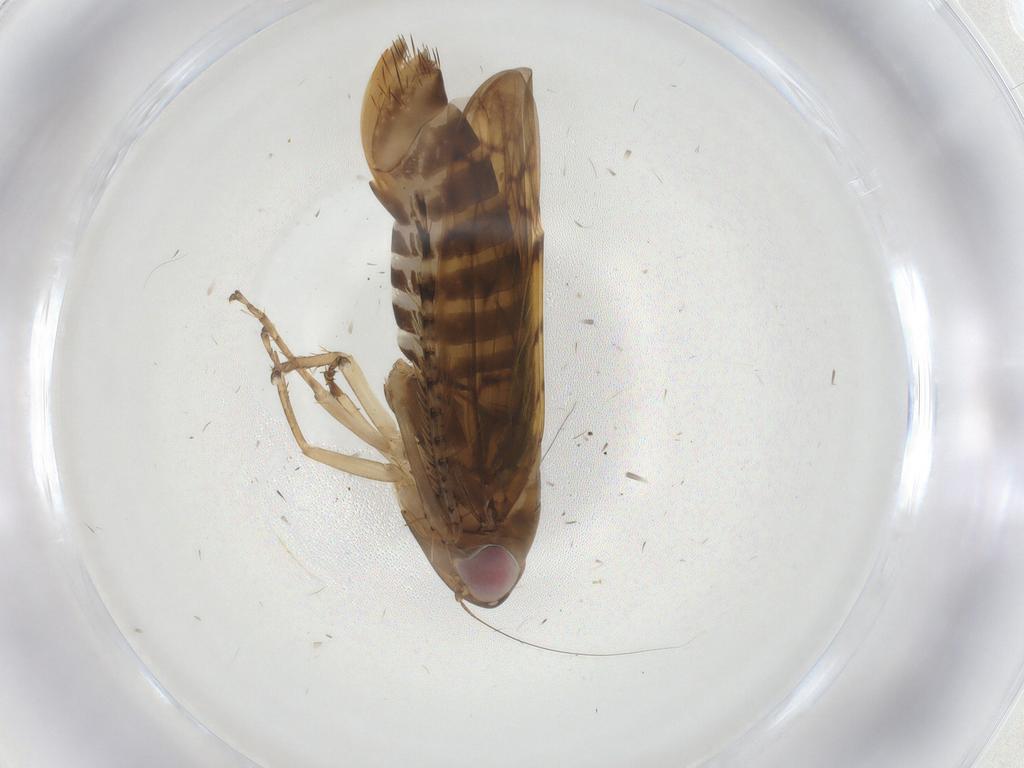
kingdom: Animalia
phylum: Arthropoda
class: Insecta
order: Hemiptera
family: Cicadellidae
